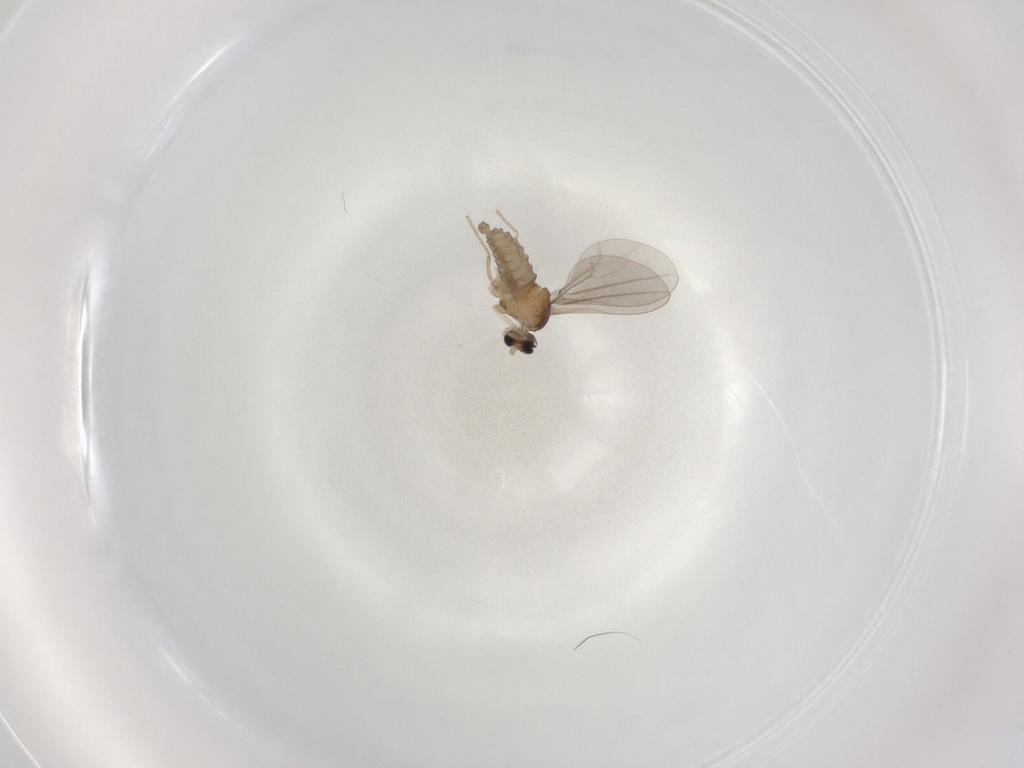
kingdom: Animalia
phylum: Arthropoda
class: Insecta
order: Diptera
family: Cecidomyiidae
